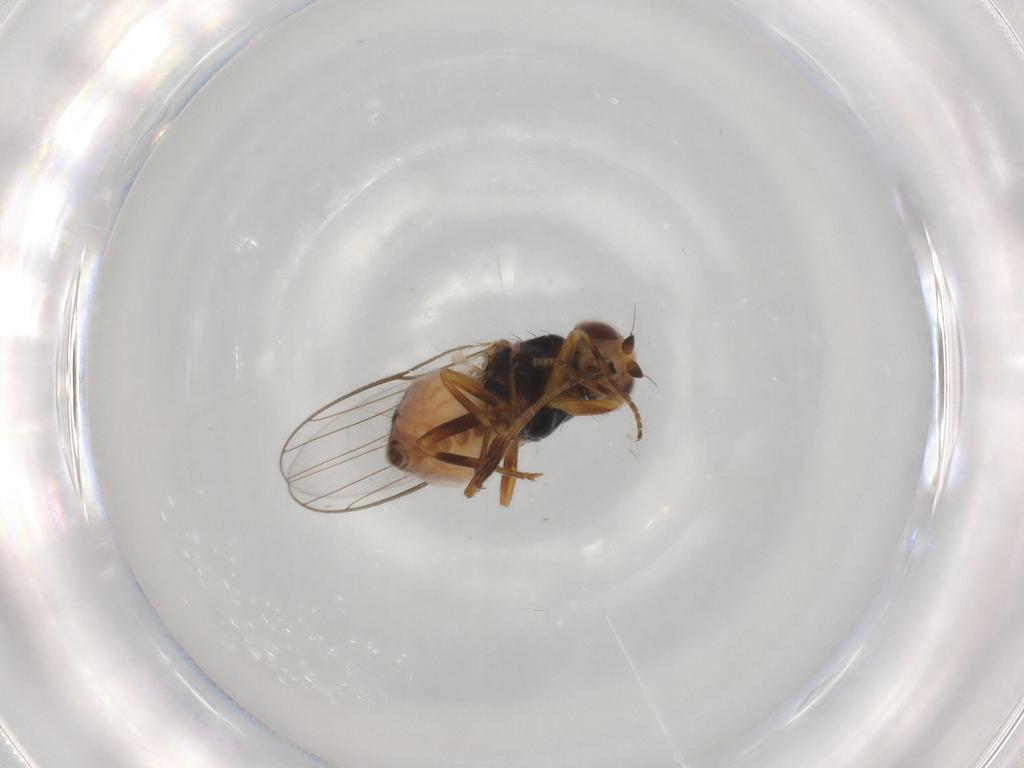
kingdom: Animalia
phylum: Arthropoda
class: Insecta
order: Diptera
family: Chloropidae
